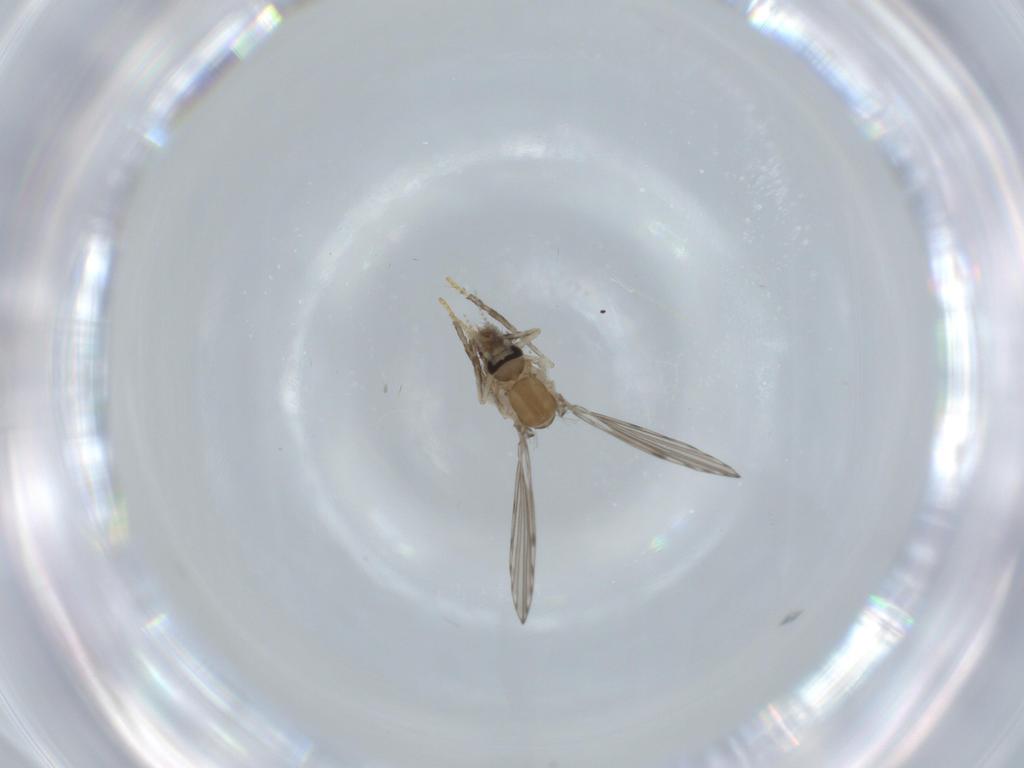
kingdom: Animalia
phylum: Arthropoda
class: Insecta
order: Diptera
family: Psychodidae
